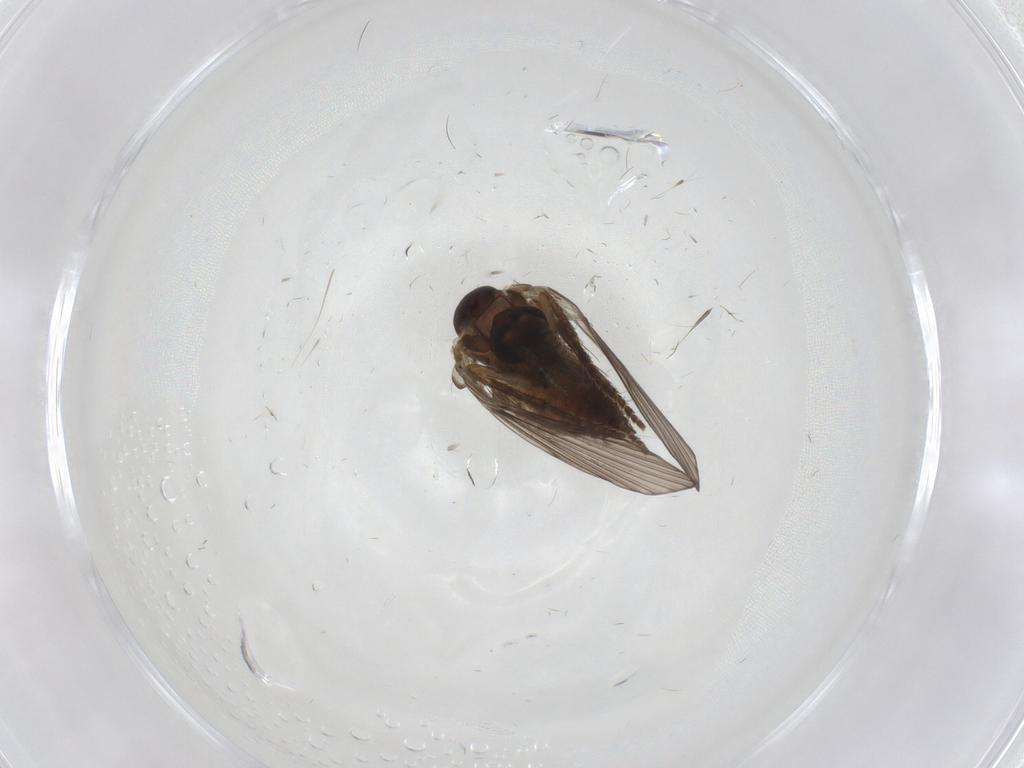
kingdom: Animalia
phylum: Arthropoda
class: Insecta
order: Diptera
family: Psychodidae
